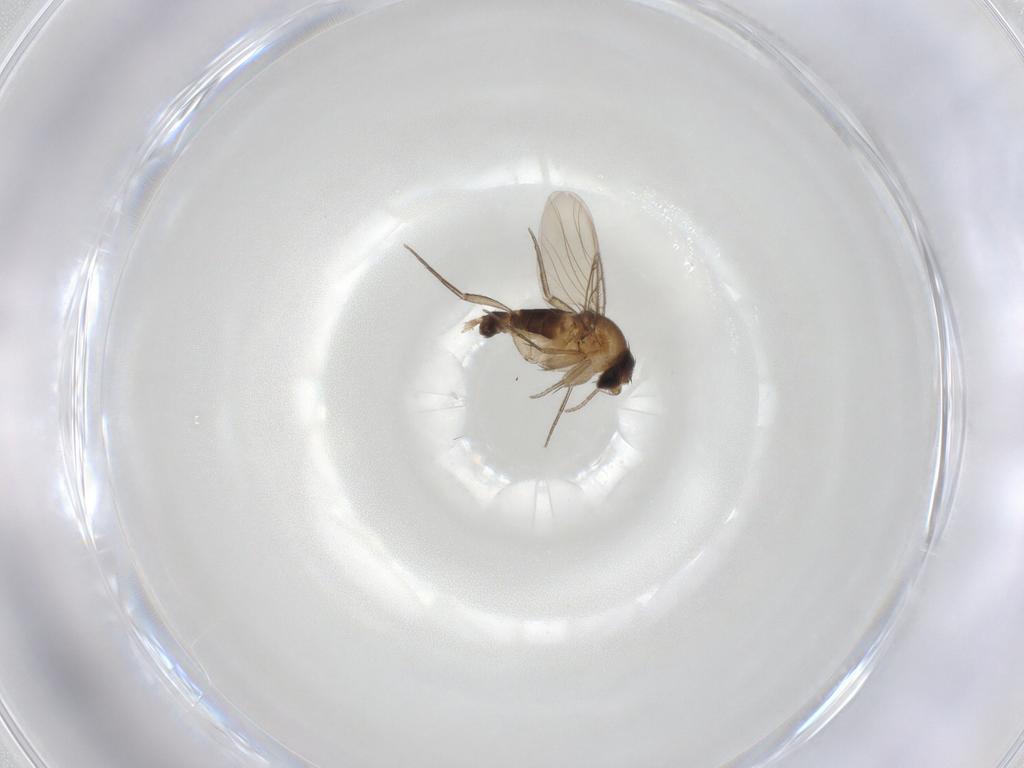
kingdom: Animalia
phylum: Arthropoda
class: Insecta
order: Diptera
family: Phoridae
